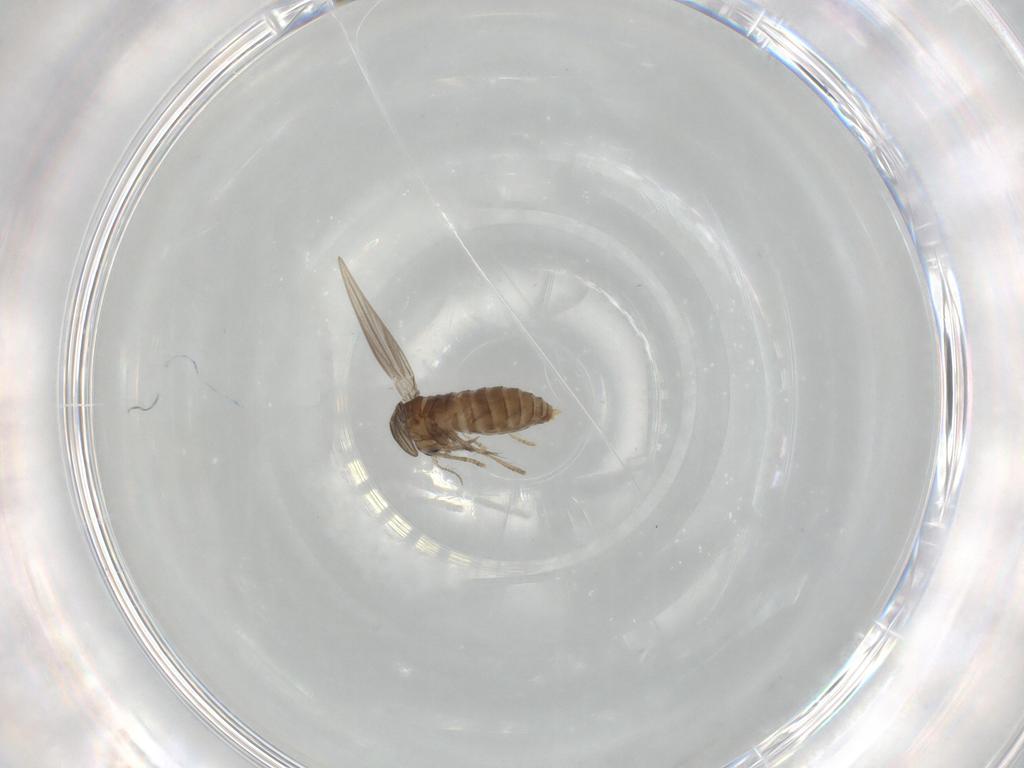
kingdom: Animalia
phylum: Arthropoda
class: Insecta
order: Diptera
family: Psychodidae
